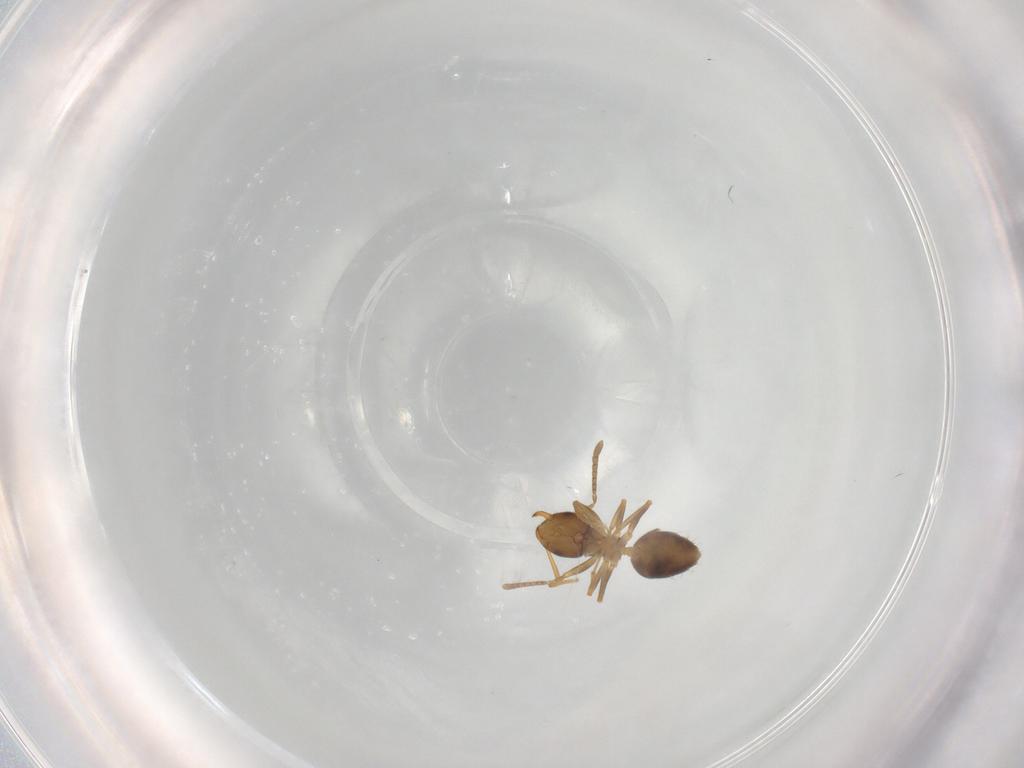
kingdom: Animalia
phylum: Arthropoda
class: Insecta
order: Hymenoptera
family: Formicidae
